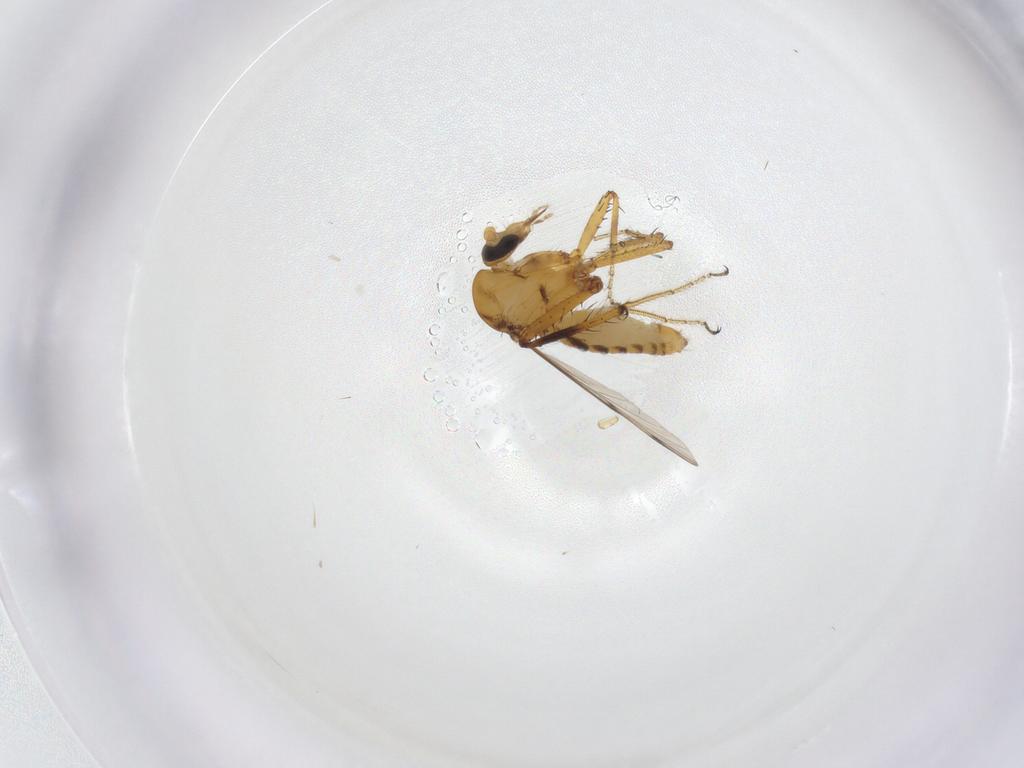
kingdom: Animalia
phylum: Arthropoda
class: Insecta
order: Diptera
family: Ceratopogonidae
